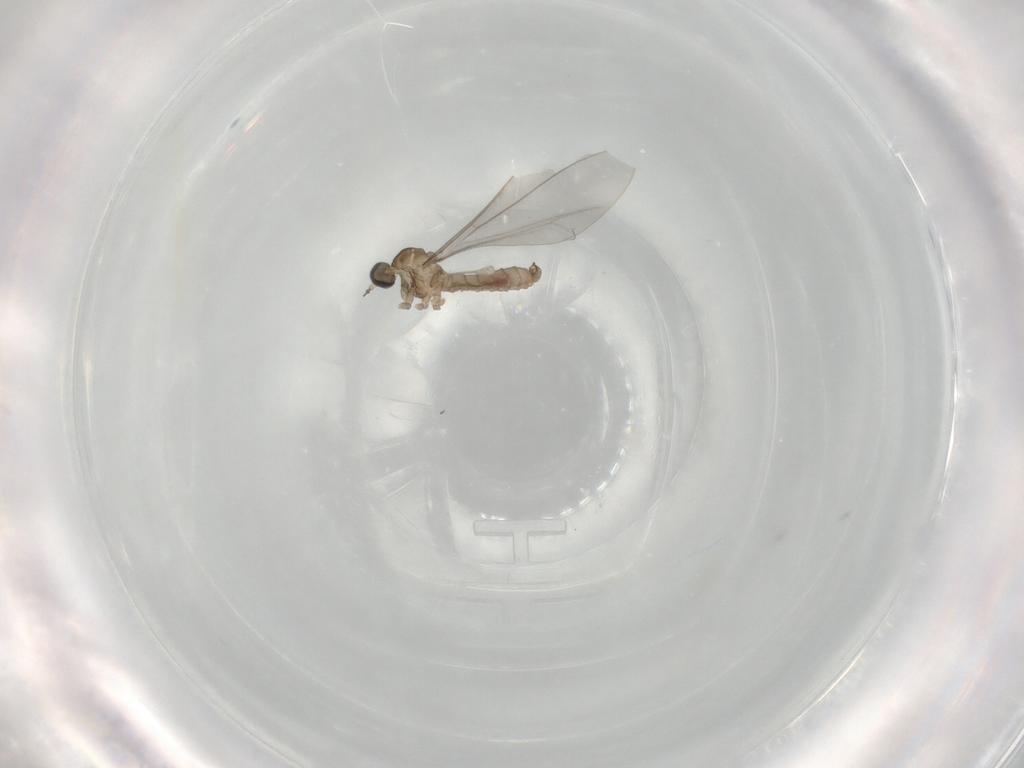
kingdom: Animalia
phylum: Arthropoda
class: Insecta
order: Diptera
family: Cecidomyiidae
